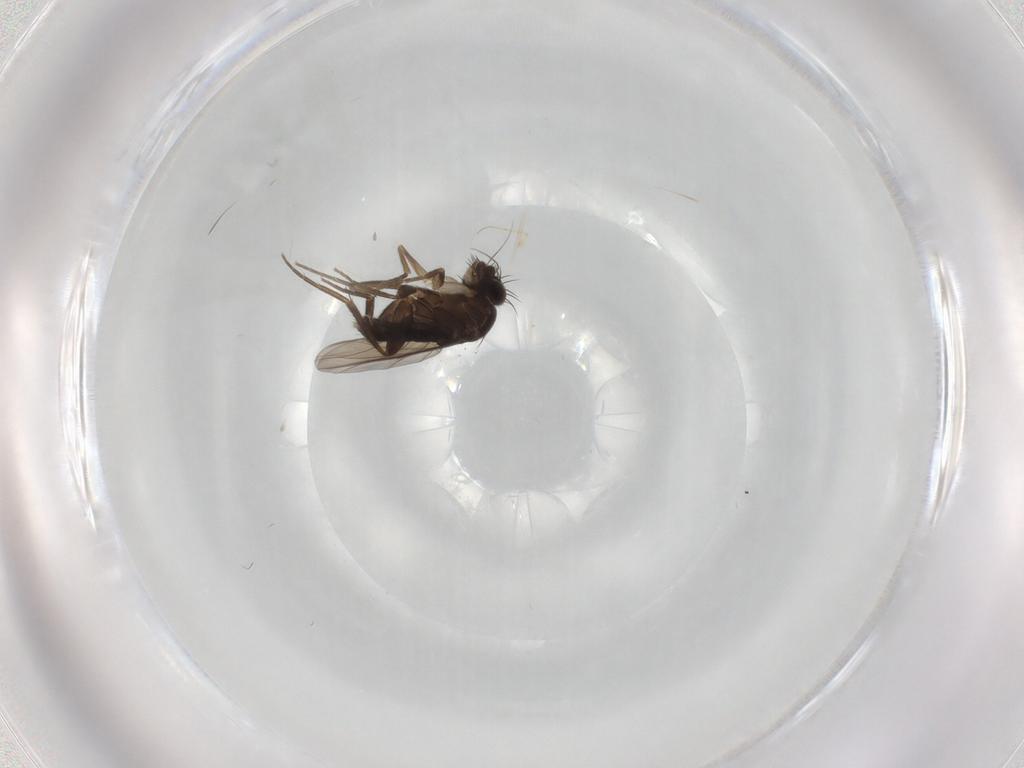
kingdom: Animalia
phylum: Arthropoda
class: Insecta
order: Diptera
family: Phoridae
